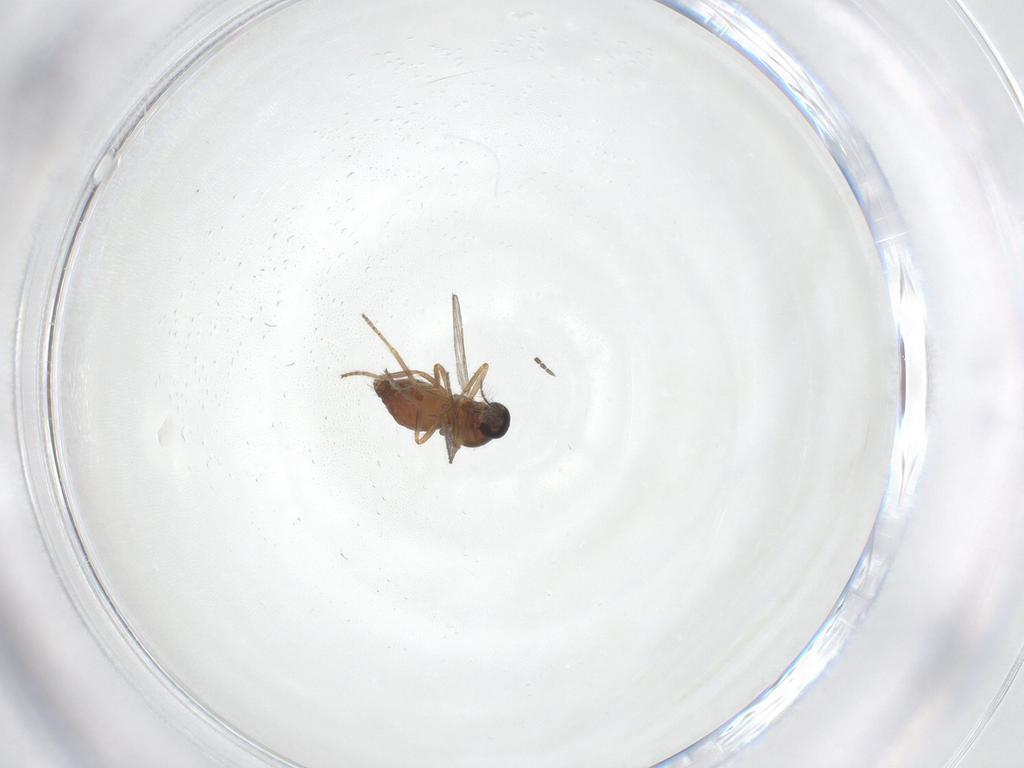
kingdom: Animalia
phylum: Arthropoda
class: Insecta
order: Diptera
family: Ceratopogonidae
